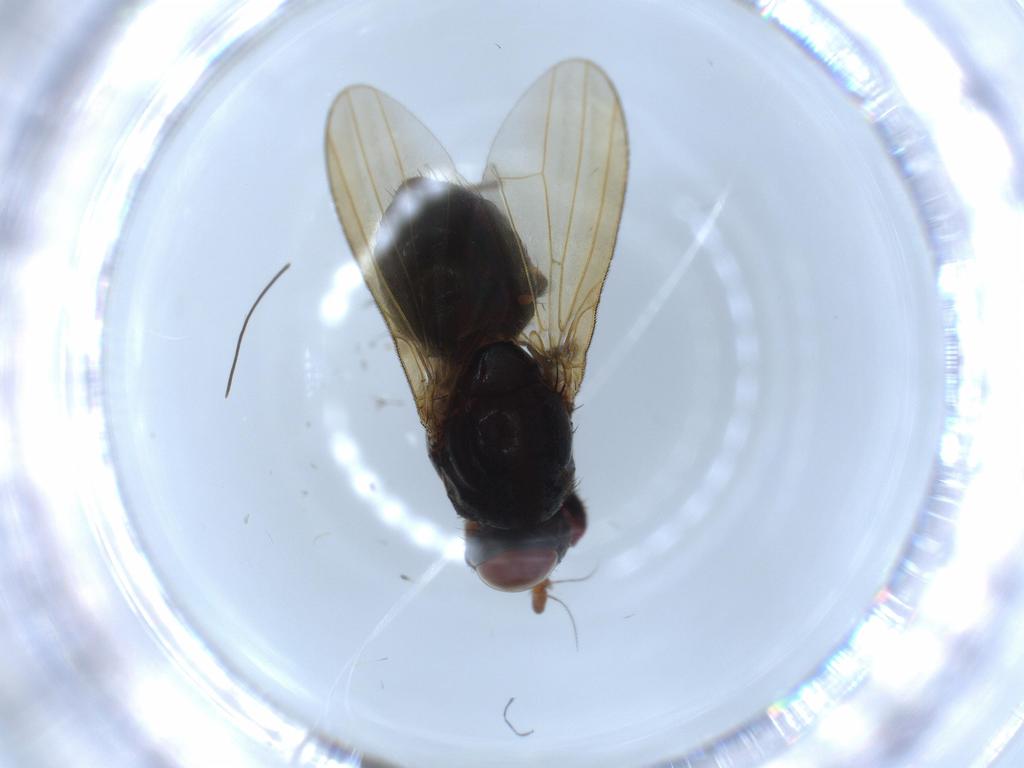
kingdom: Animalia
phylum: Arthropoda
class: Insecta
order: Diptera
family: Lauxaniidae
